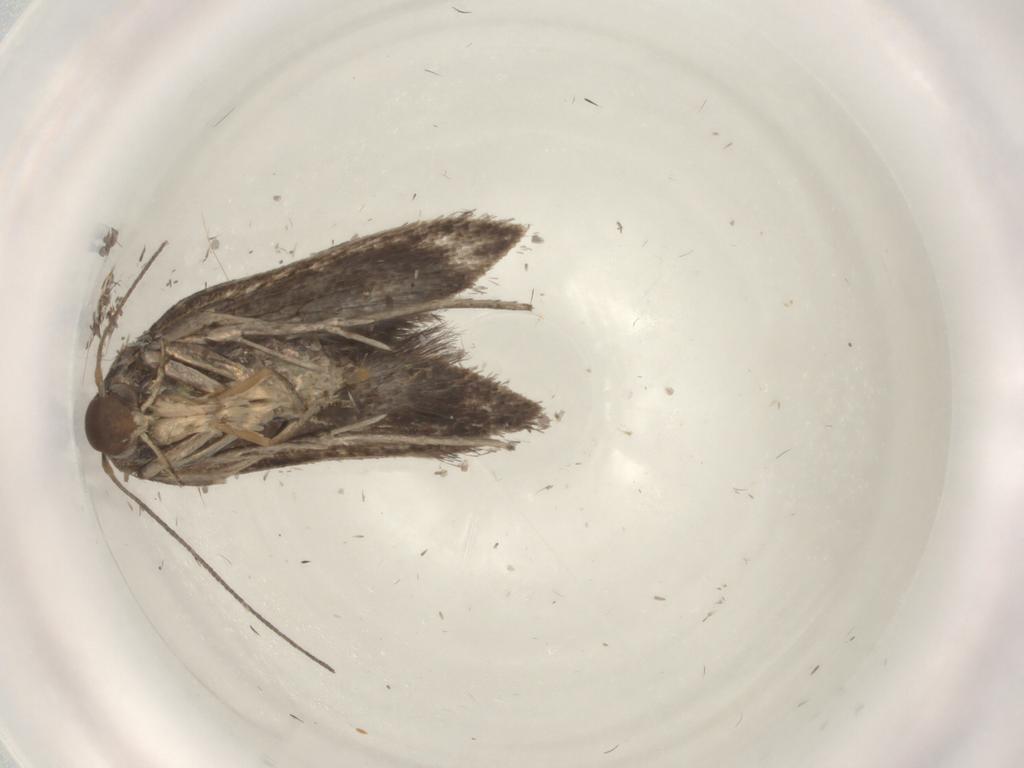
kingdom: Animalia
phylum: Arthropoda
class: Insecta
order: Lepidoptera
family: Noctuidae
